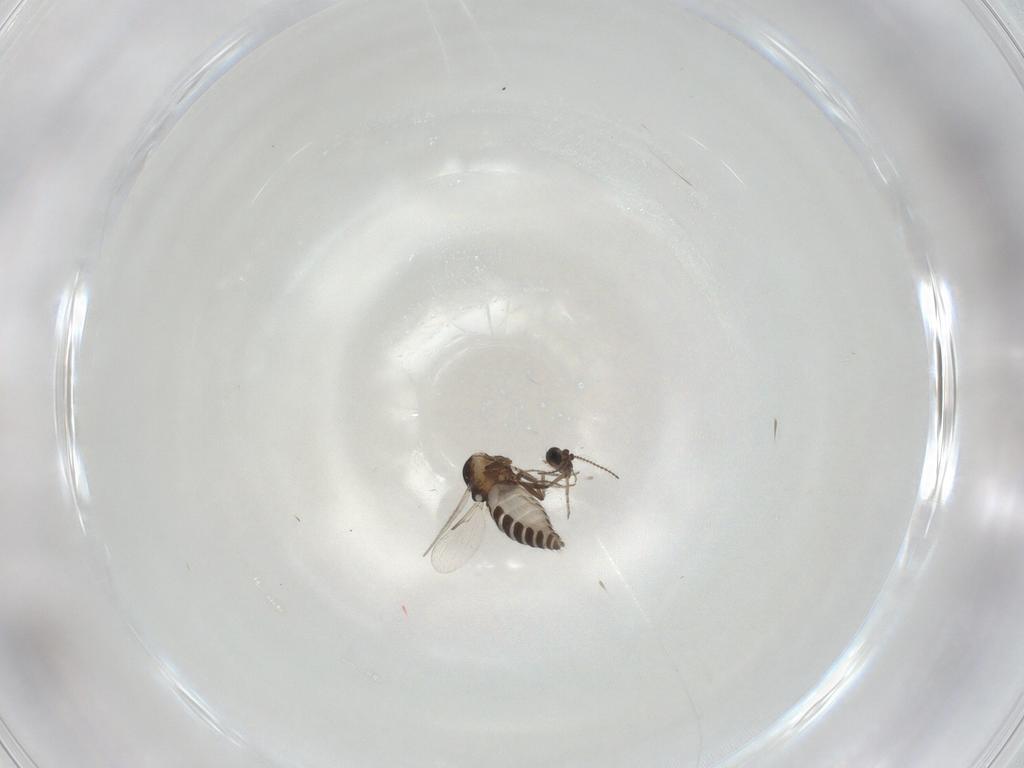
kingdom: Animalia
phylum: Arthropoda
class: Insecta
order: Diptera
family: Ceratopogonidae
